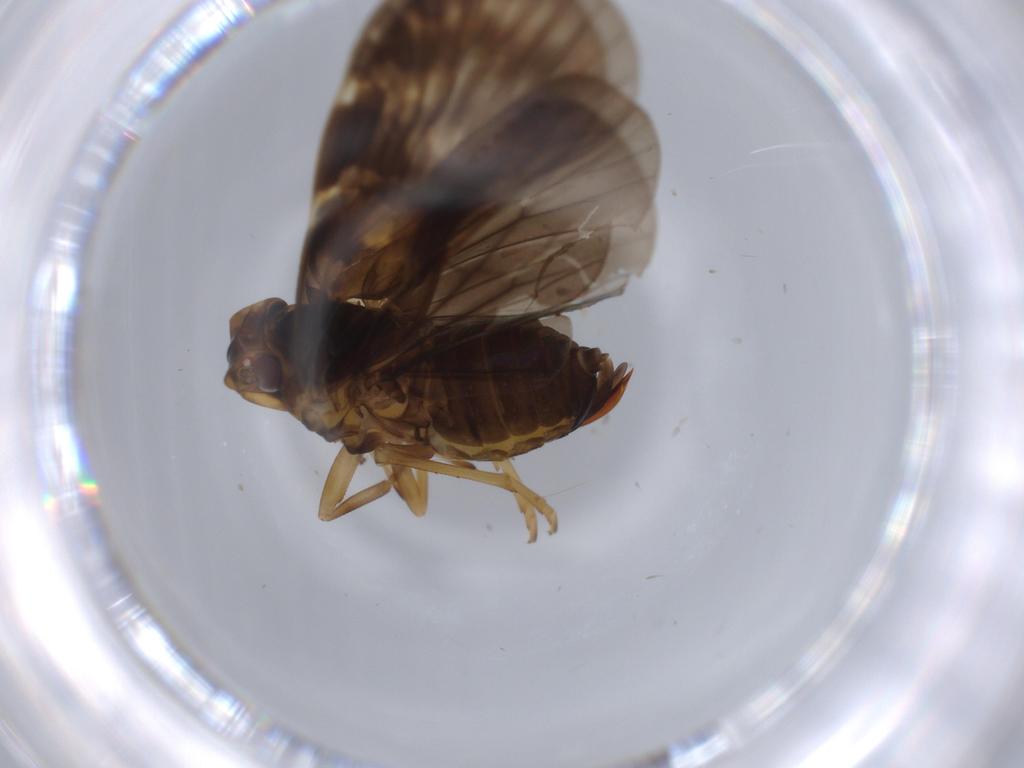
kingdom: Animalia
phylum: Arthropoda
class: Insecta
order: Hemiptera
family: Cixiidae
